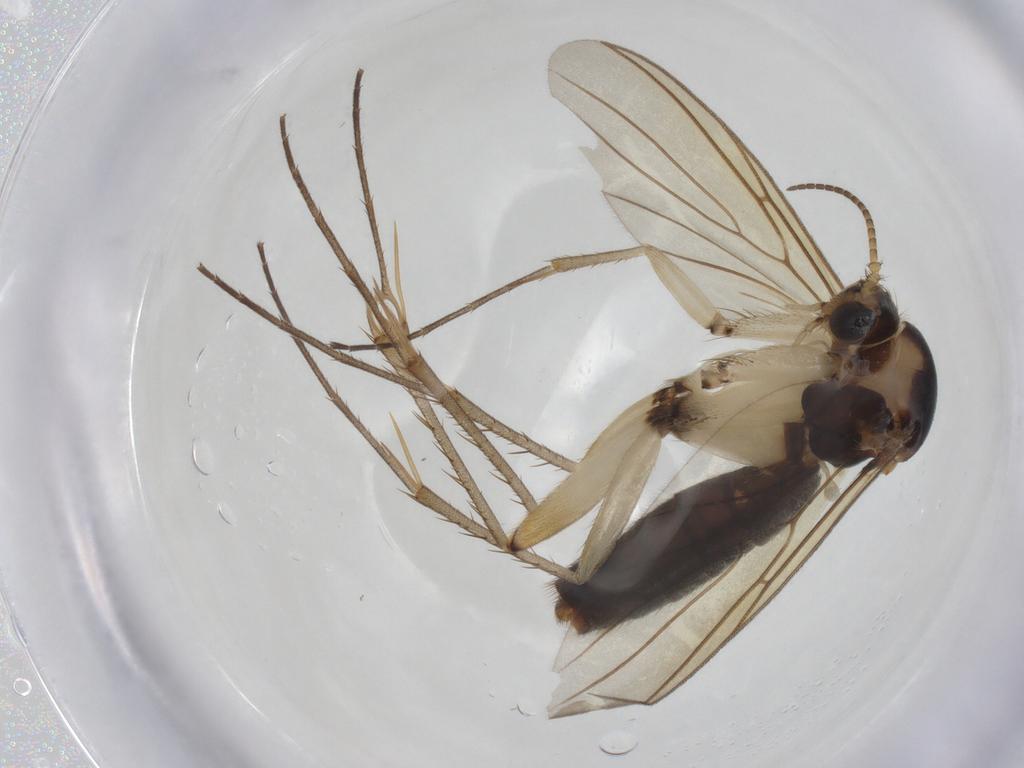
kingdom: Animalia
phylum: Arthropoda
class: Insecta
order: Diptera
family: Mycetophilidae
